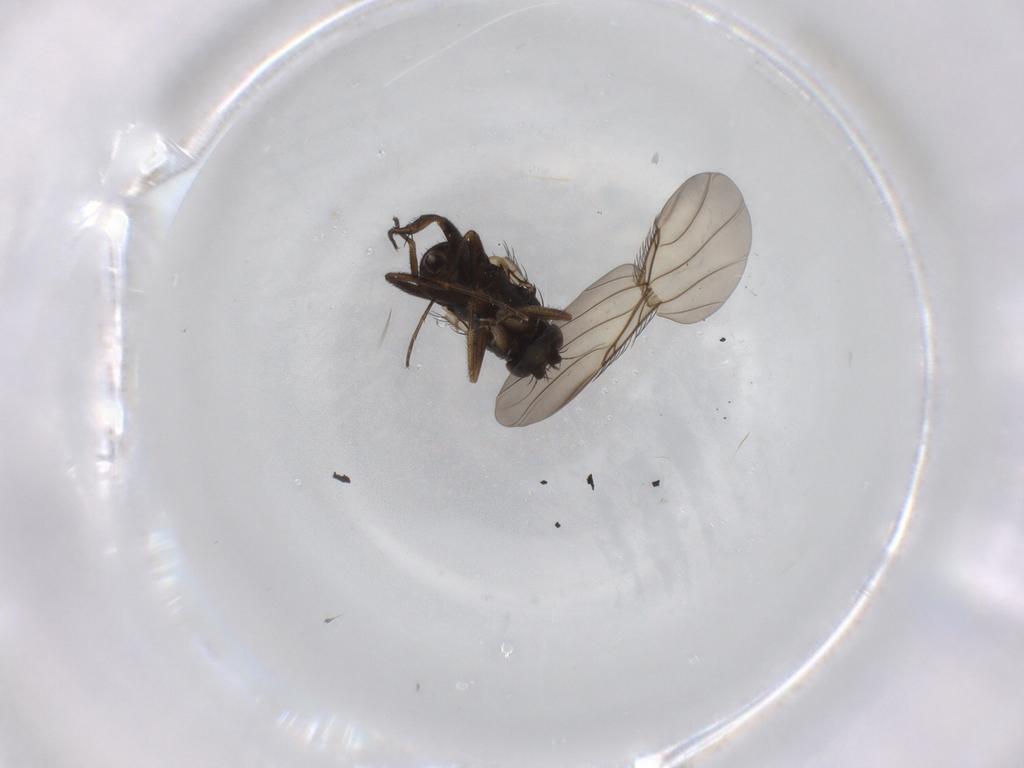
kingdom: Animalia
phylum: Arthropoda
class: Insecta
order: Diptera
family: Phoridae
